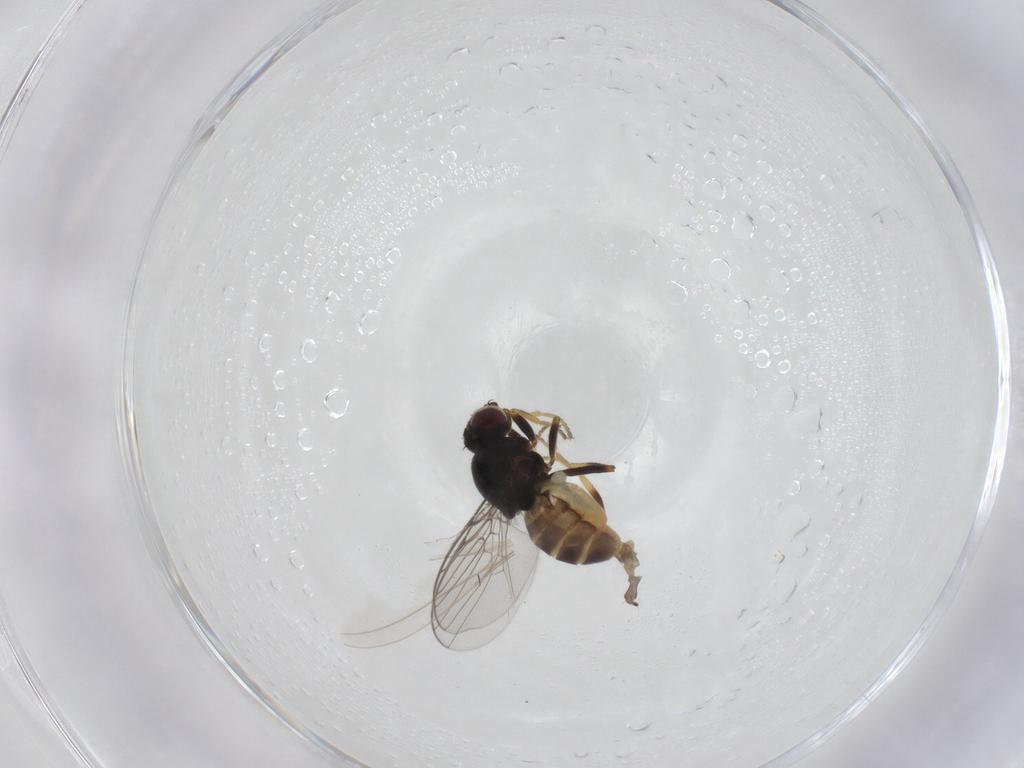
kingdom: Animalia
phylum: Arthropoda
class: Insecta
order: Diptera
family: Chloropidae
